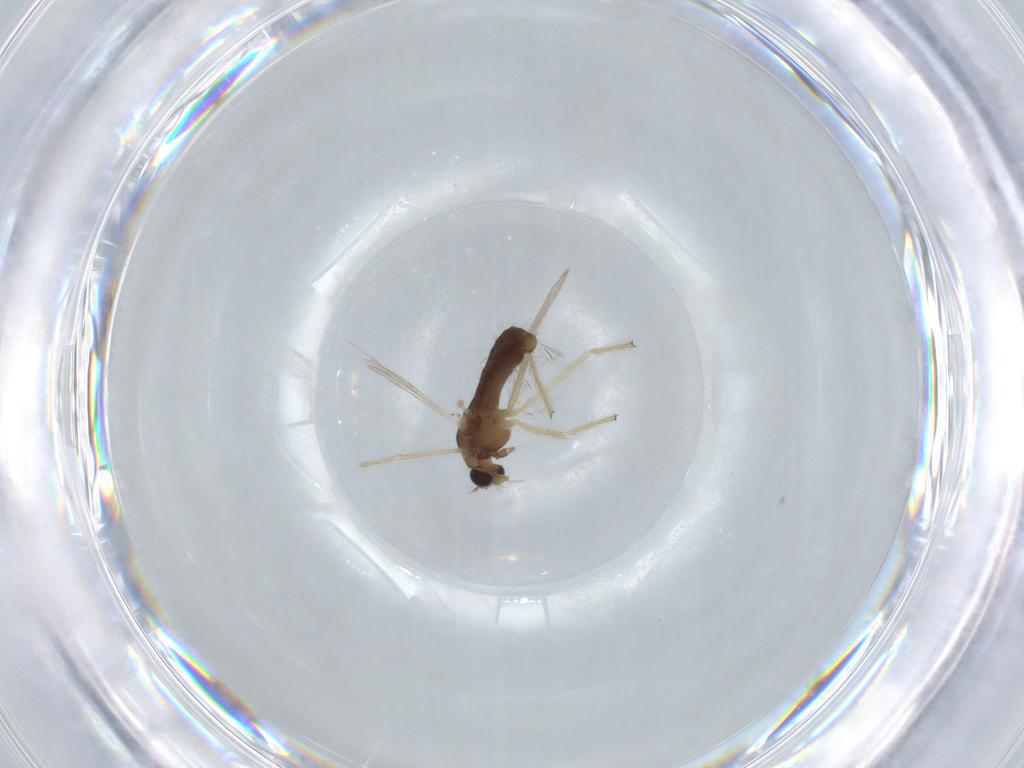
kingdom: Animalia
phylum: Arthropoda
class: Insecta
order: Diptera
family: Chironomidae
